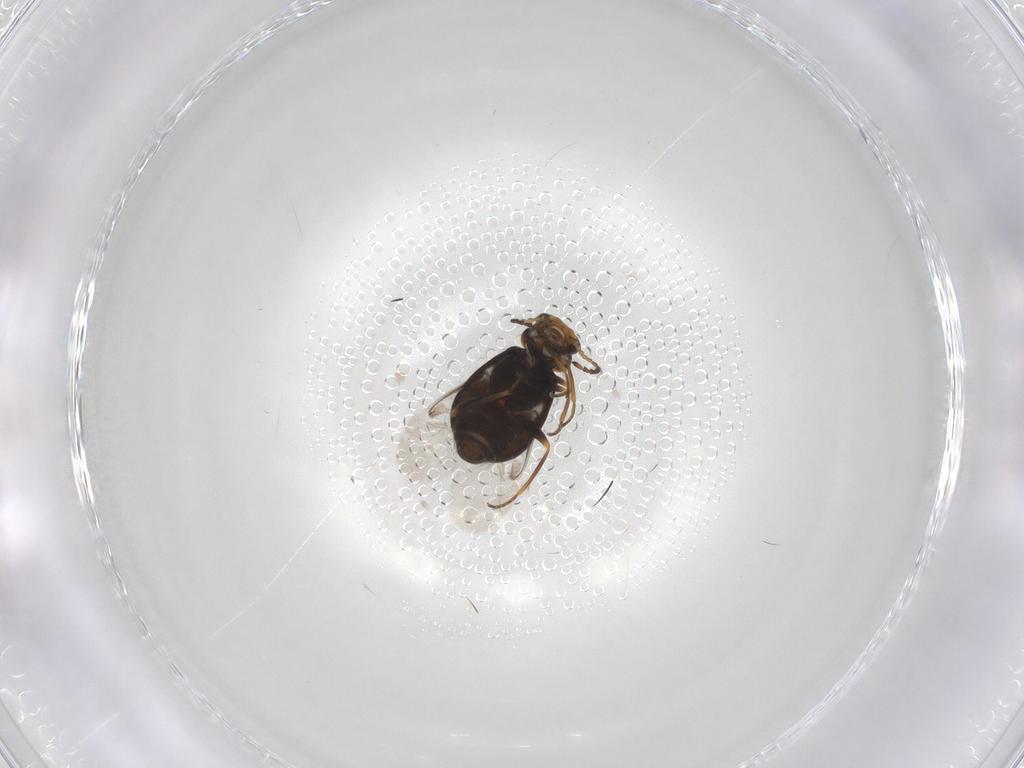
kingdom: Animalia
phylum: Arthropoda
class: Insecta
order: Coleoptera
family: Melyridae
